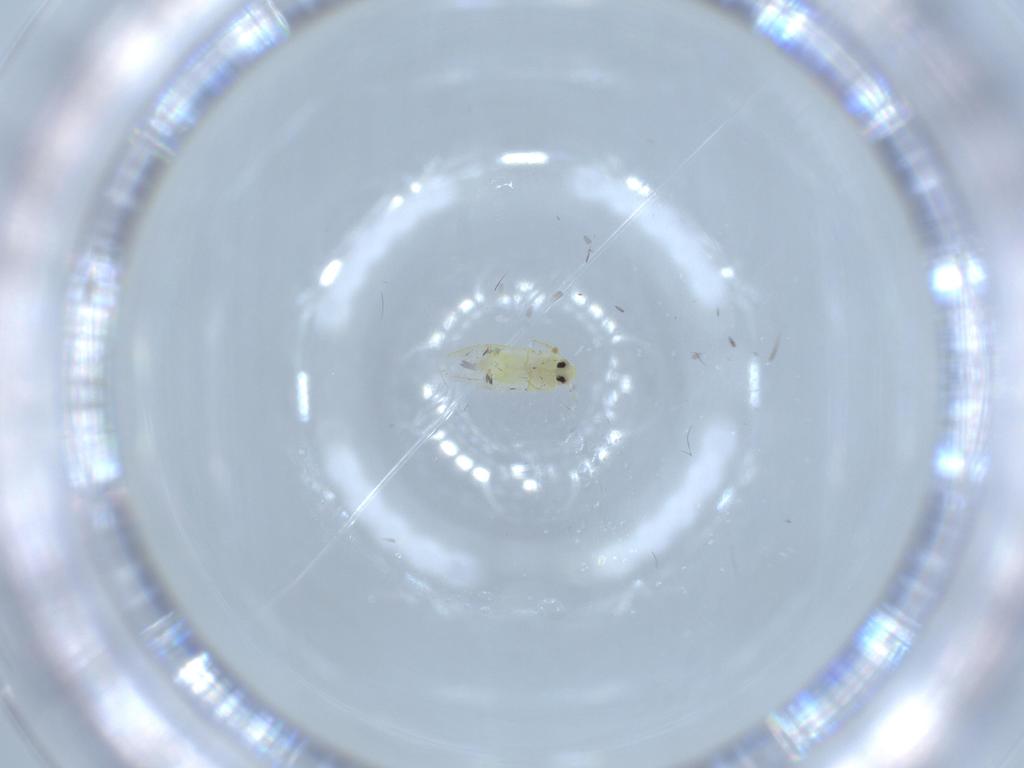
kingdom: Animalia
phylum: Arthropoda
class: Insecta
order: Hemiptera
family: Aleyrodidae
